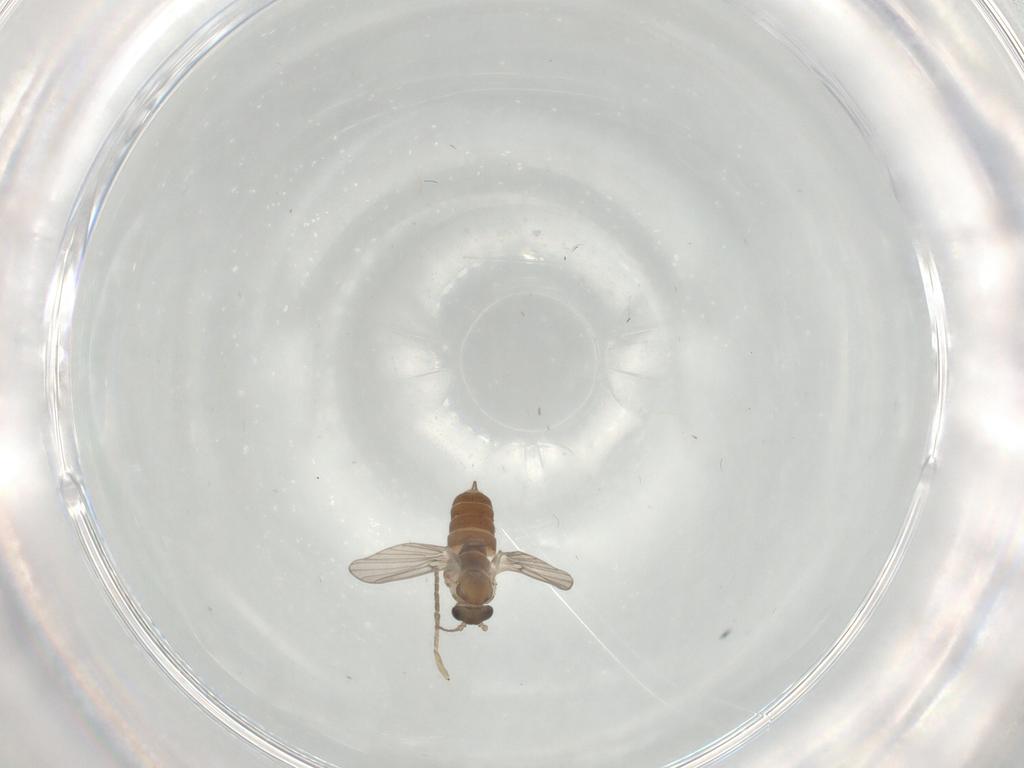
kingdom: Animalia
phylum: Arthropoda
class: Insecta
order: Diptera
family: Psychodidae
